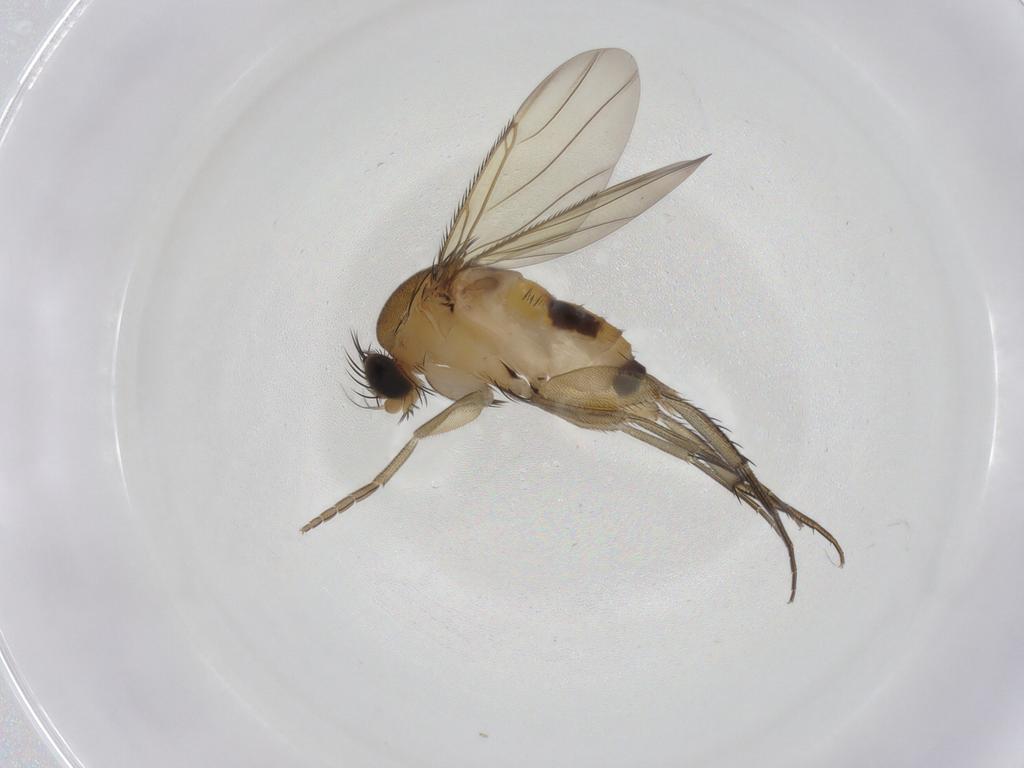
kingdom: Animalia
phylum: Arthropoda
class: Insecta
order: Diptera
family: Phoridae
